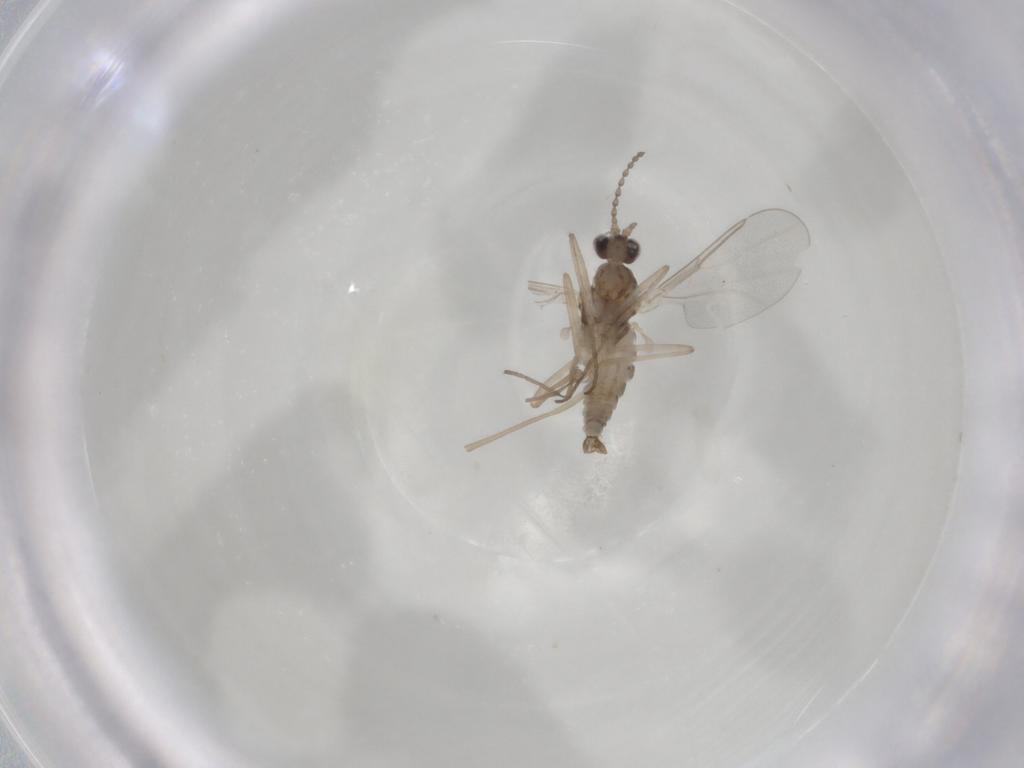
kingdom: Animalia
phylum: Arthropoda
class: Insecta
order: Diptera
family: Cecidomyiidae
